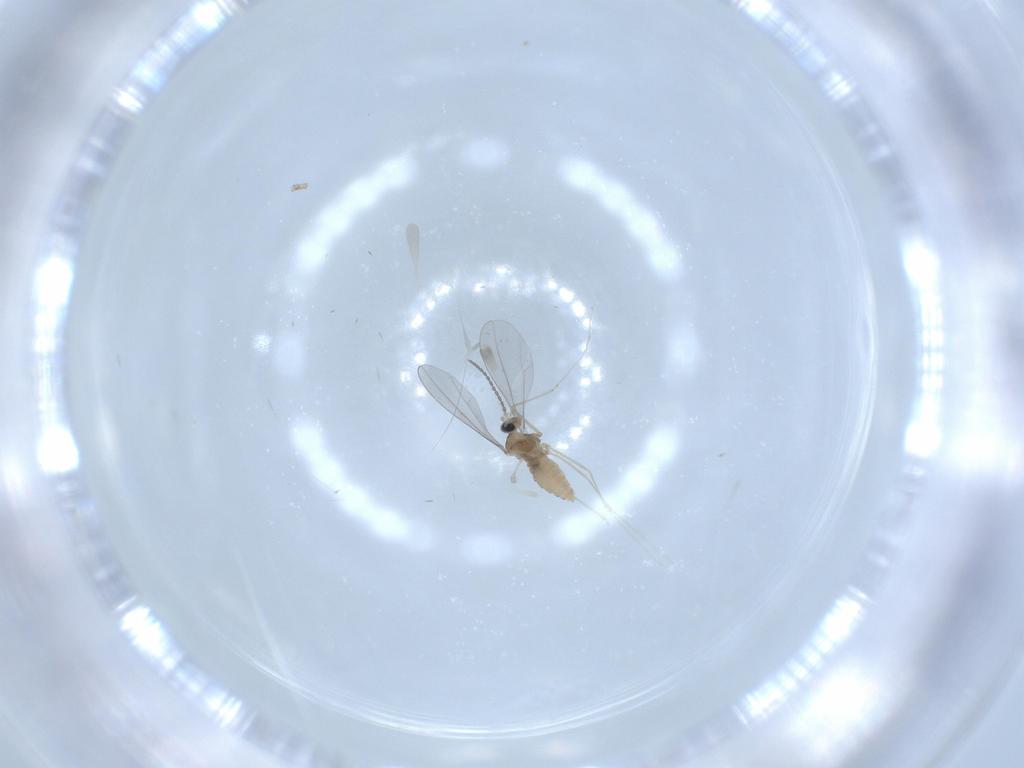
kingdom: Animalia
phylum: Arthropoda
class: Insecta
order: Diptera
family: Cecidomyiidae
